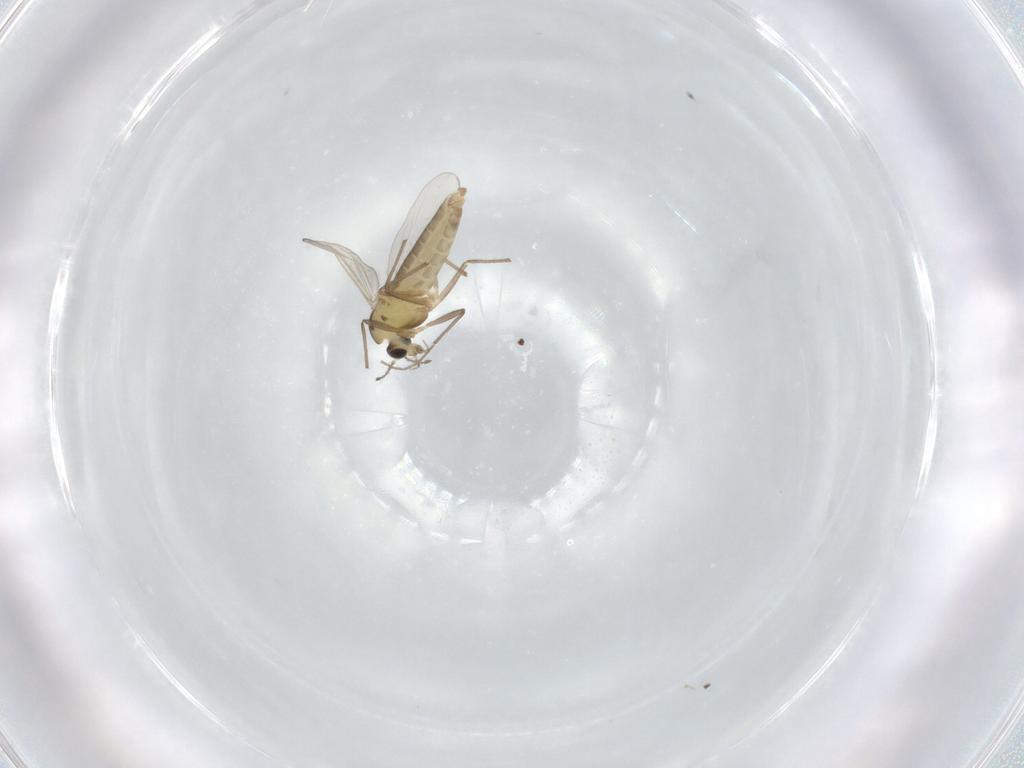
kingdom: Animalia
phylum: Arthropoda
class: Insecta
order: Diptera
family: Chironomidae
